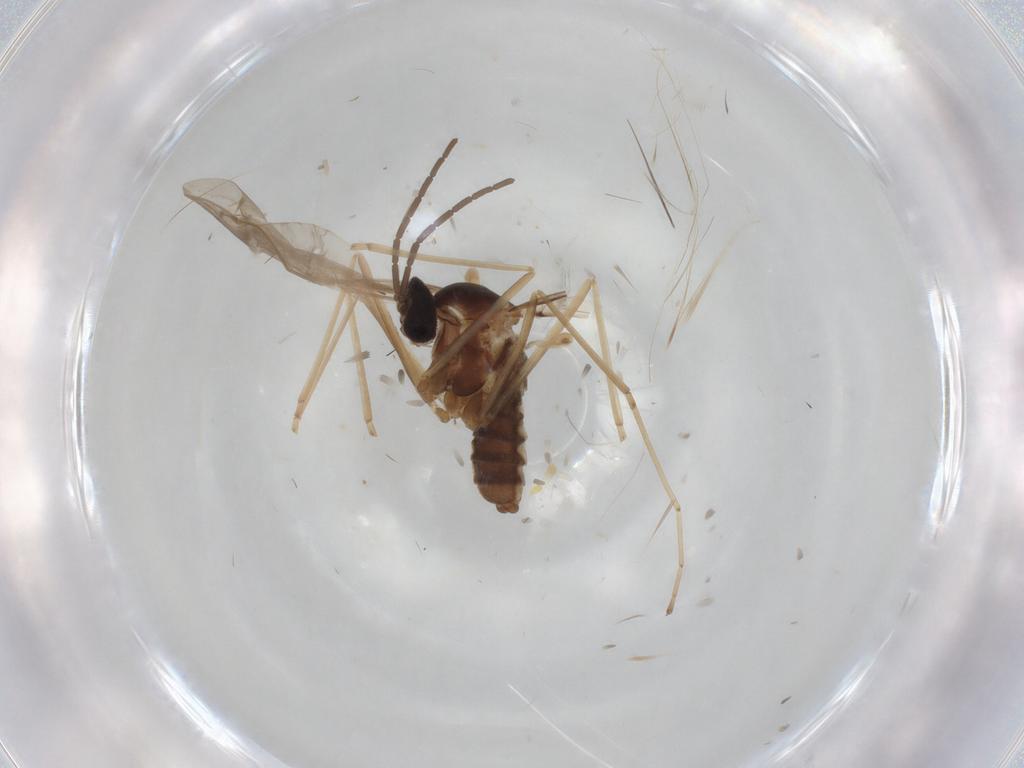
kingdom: Animalia
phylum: Arthropoda
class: Insecta
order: Diptera
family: Cecidomyiidae
